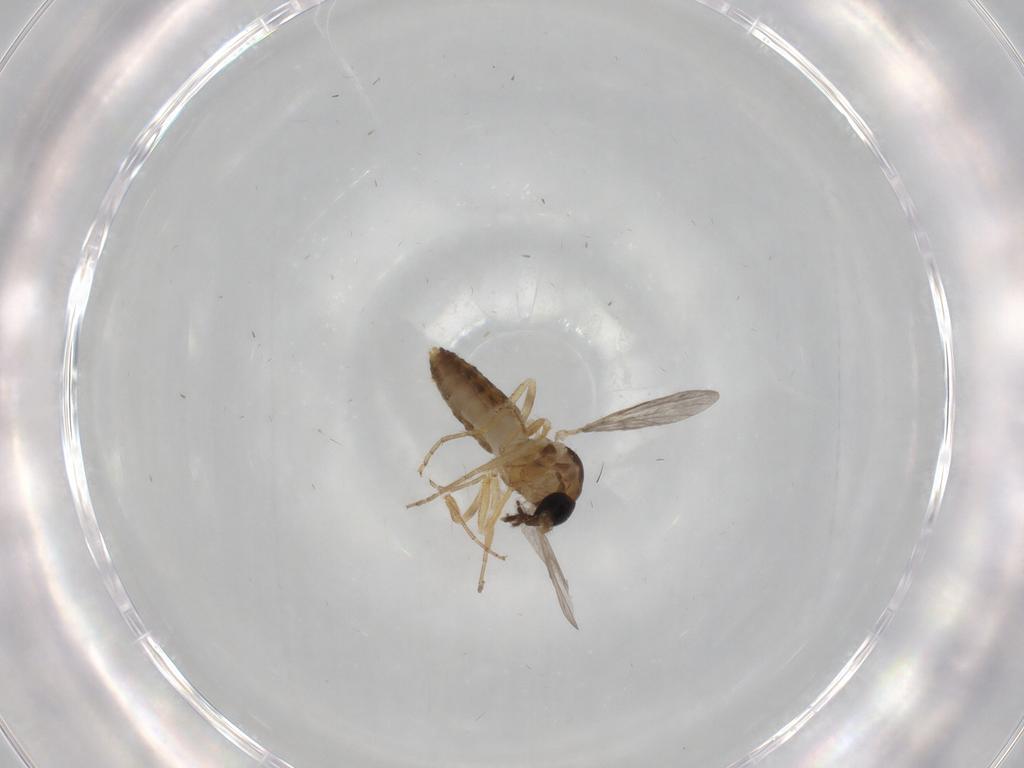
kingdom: Animalia
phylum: Arthropoda
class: Insecta
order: Diptera
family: Ceratopogonidae
